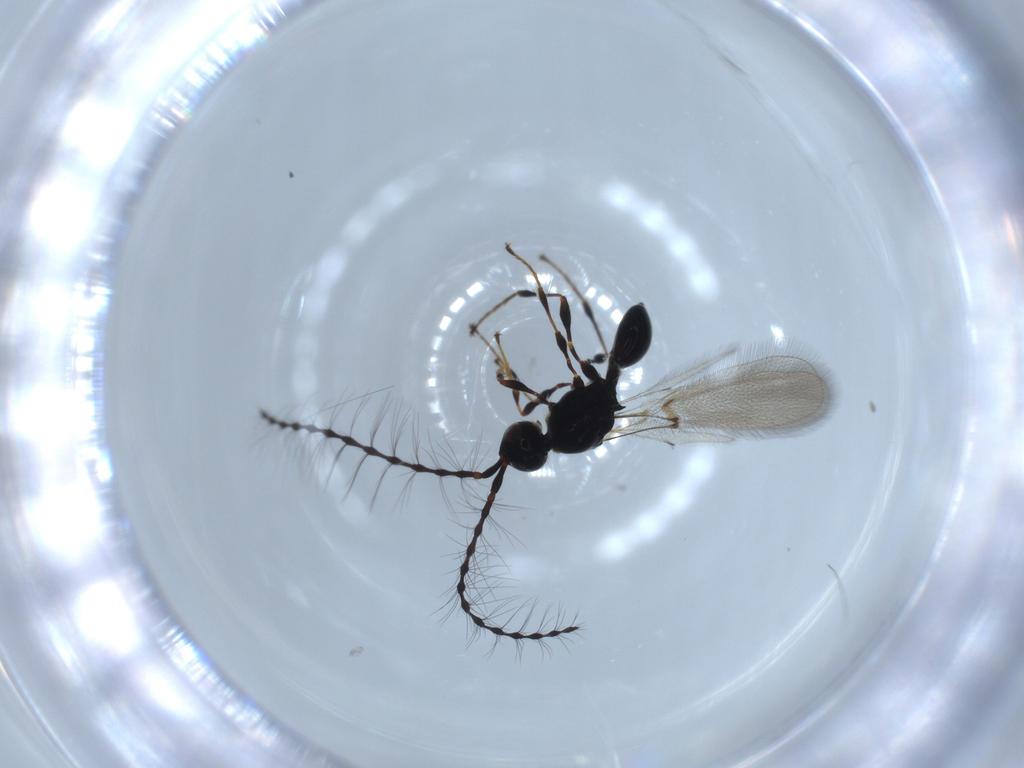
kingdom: Animalia
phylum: Arthropoda
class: Insecta
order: Hymenoptera
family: Diapriidae
